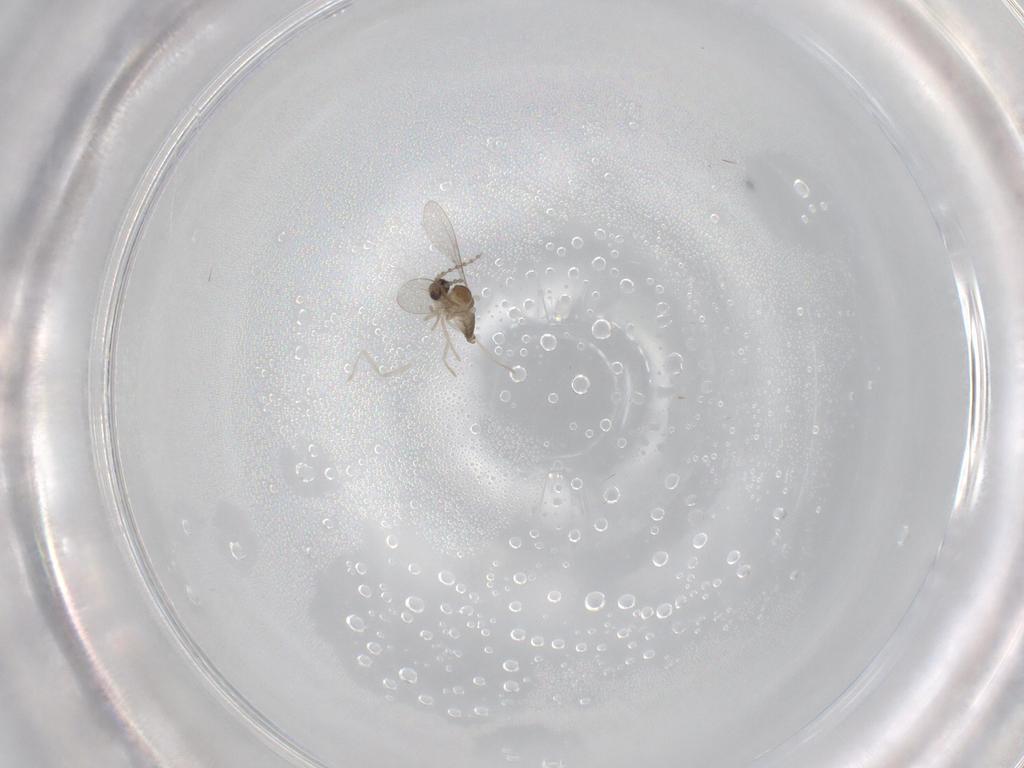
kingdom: Animalia
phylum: Arthropoda
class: Insecta
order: Diptera
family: Cecidomyiidae
